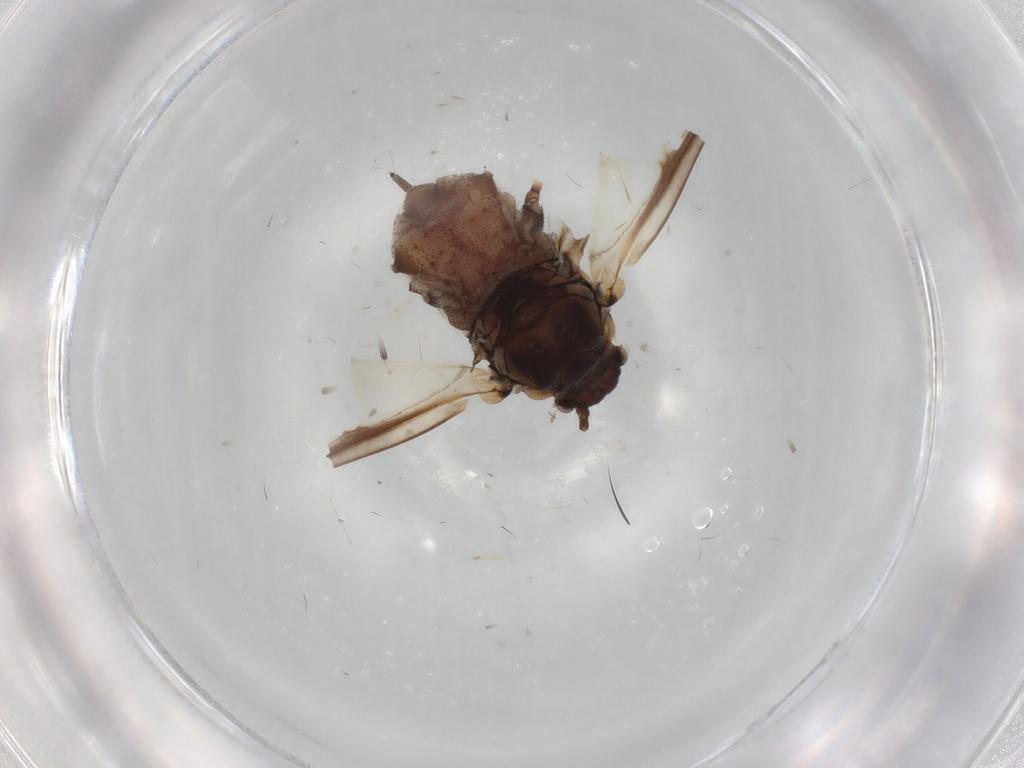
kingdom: Animalia
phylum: Arthropoda
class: Insecta
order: Hemiptera
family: Aphididae
